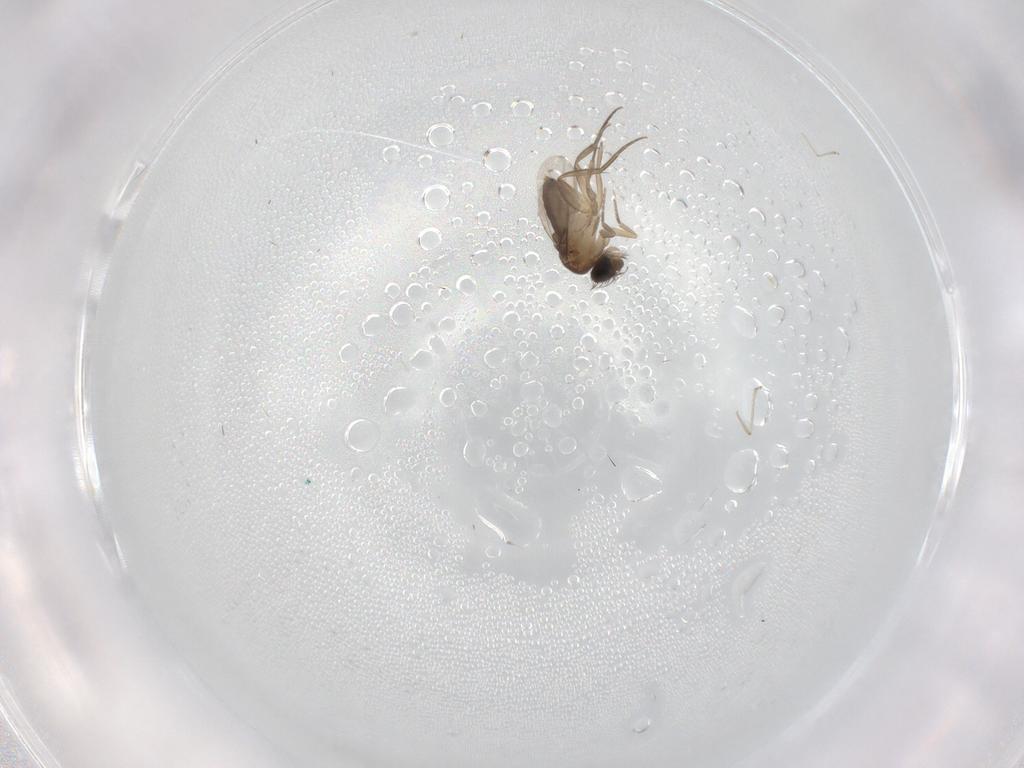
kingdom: Animalia
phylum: Arthropoda
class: Insecta
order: Diptera
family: Phoridae
